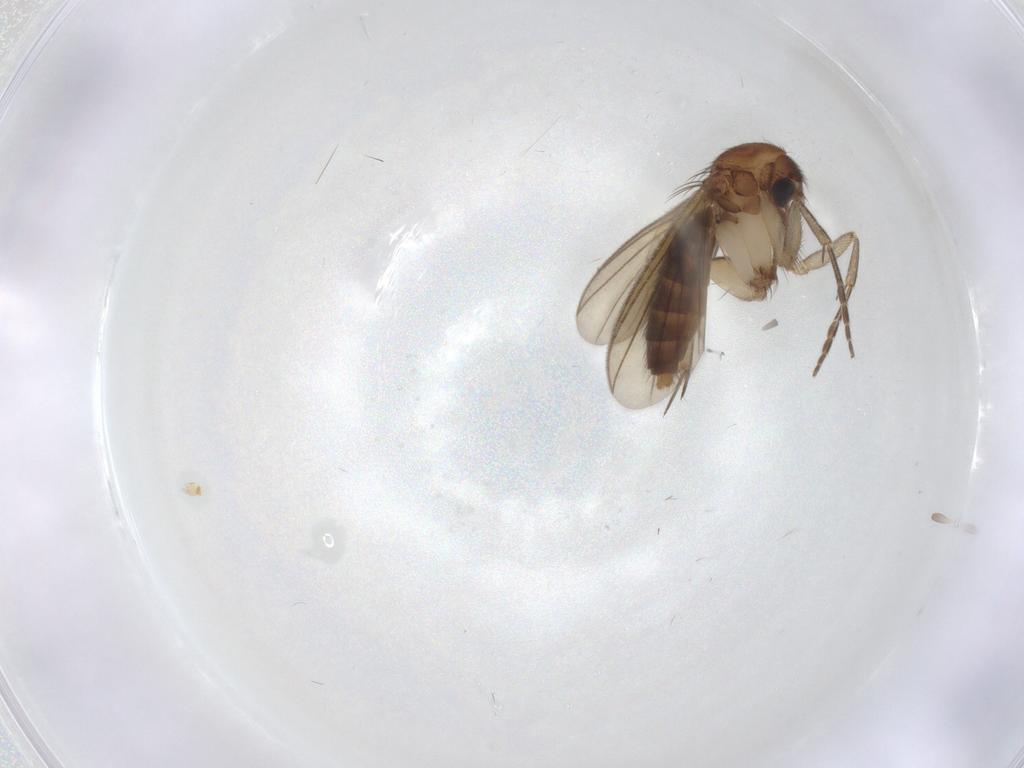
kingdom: Animalia
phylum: Arthropoda
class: Insecta
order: Diptera
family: Mycetophilidae
